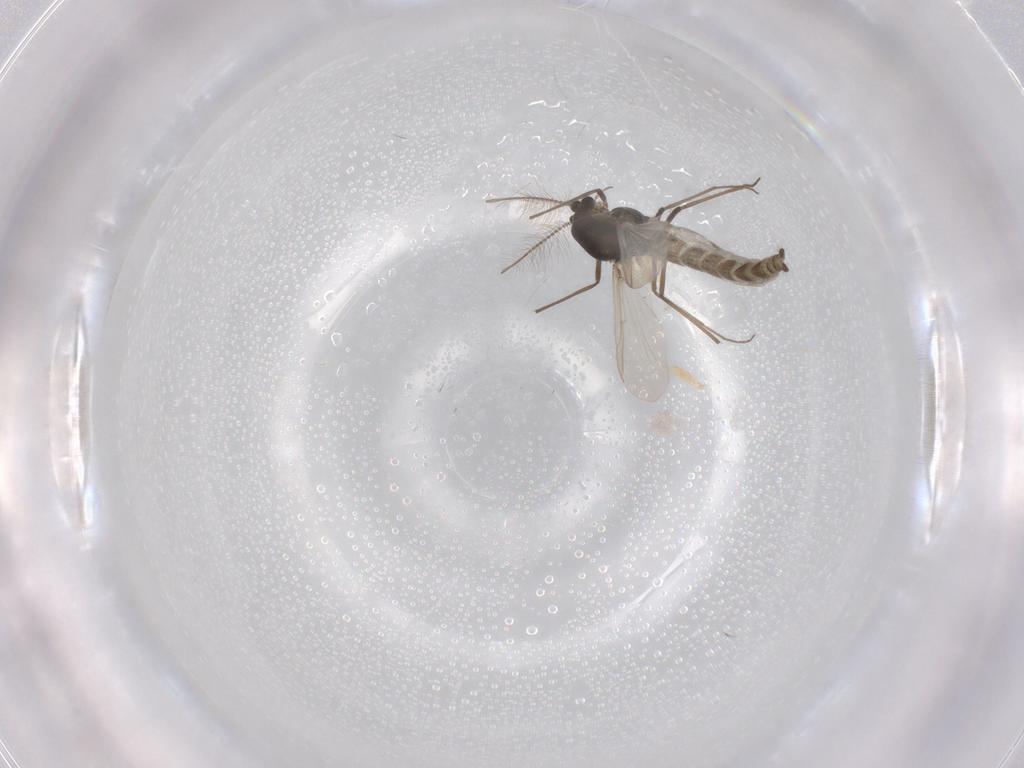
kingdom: Animalia
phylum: Arthropoda
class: Insecta
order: Diptera
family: Chironomidae
